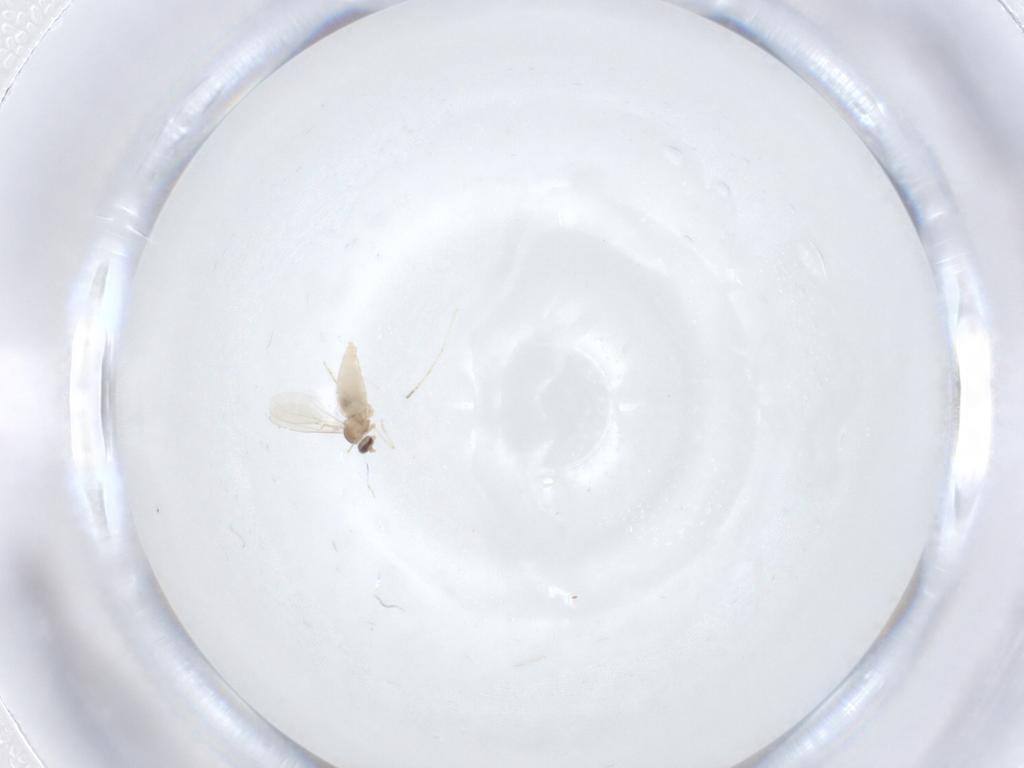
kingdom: Animalia
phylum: Arthropoda
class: Insecta
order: Diptera
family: Cecidomyiidae
